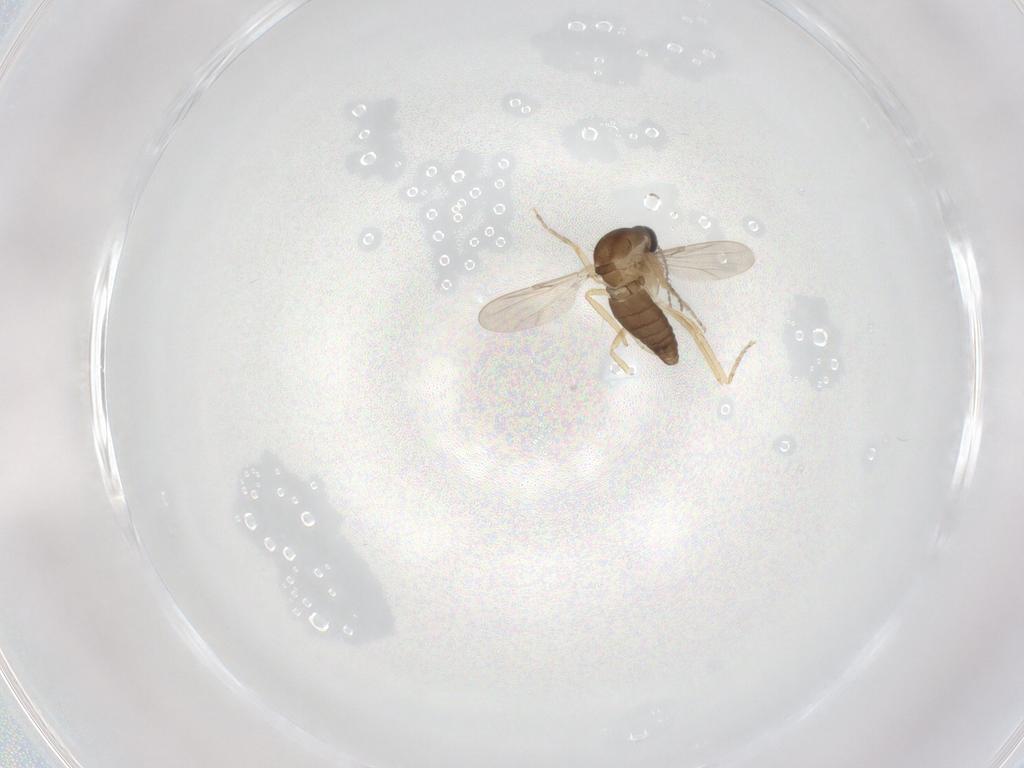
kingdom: Animalia
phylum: Arthropoda
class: Insecta
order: Diptera
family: Ceratopogonidae
